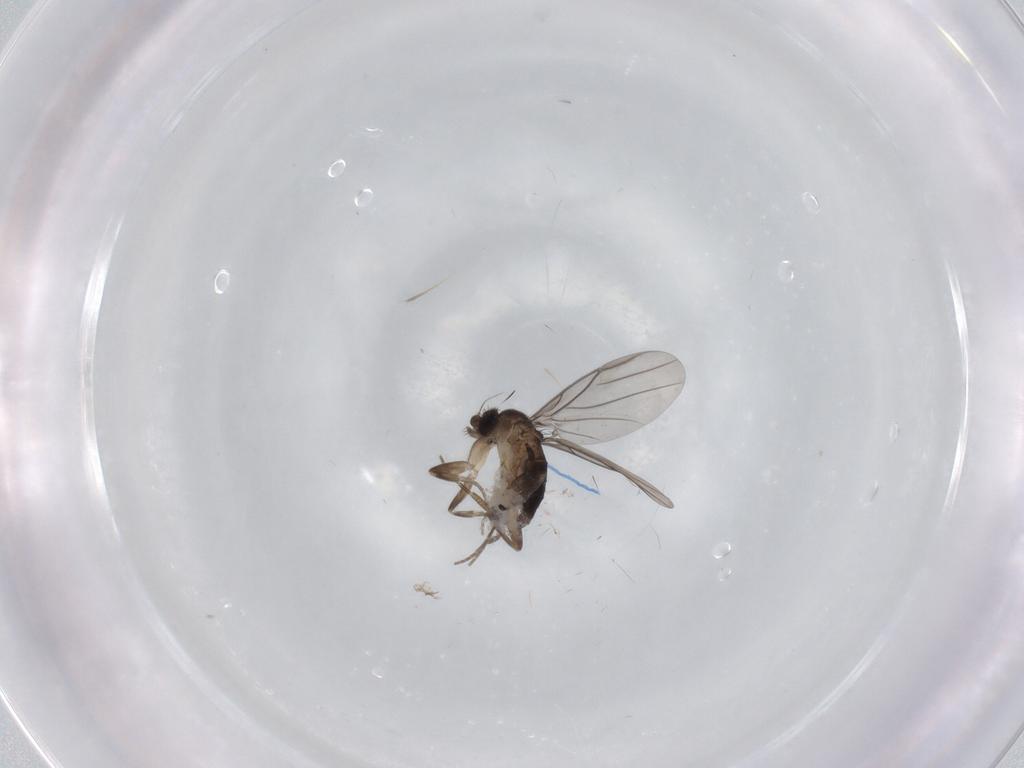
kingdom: Animalia
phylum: Arthropoda
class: Insecta
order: Diptera
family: Phoridae
